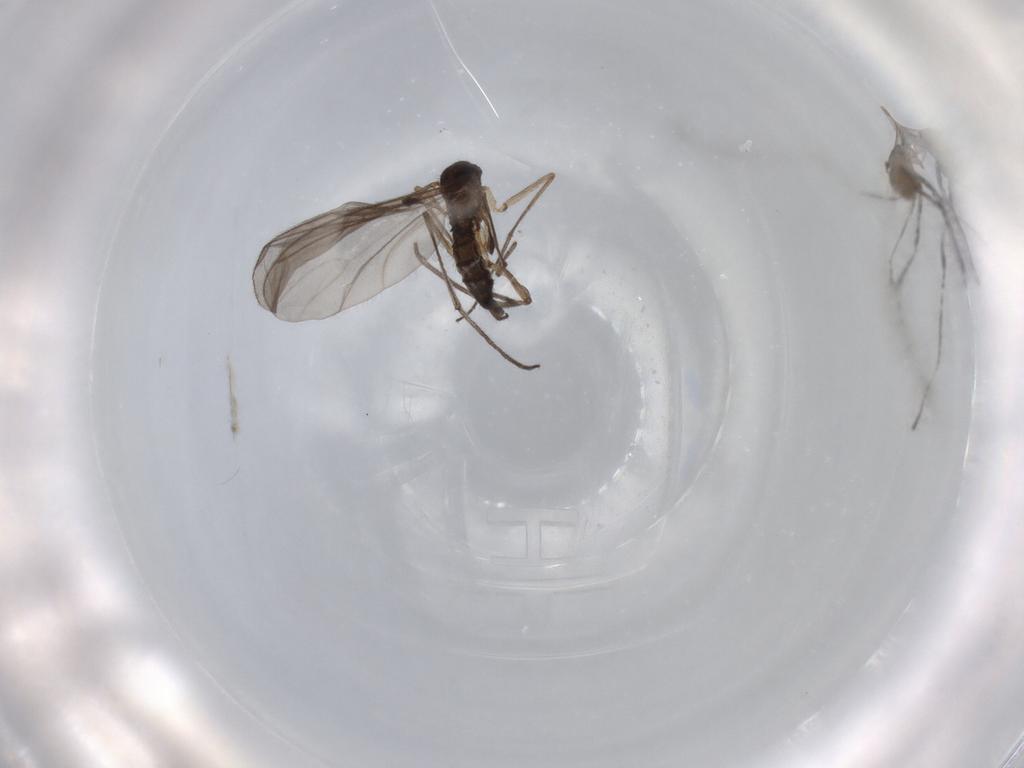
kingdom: Animalia
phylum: Arthropoda
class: Insecta
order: Diptera
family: Cecidomyiidae
